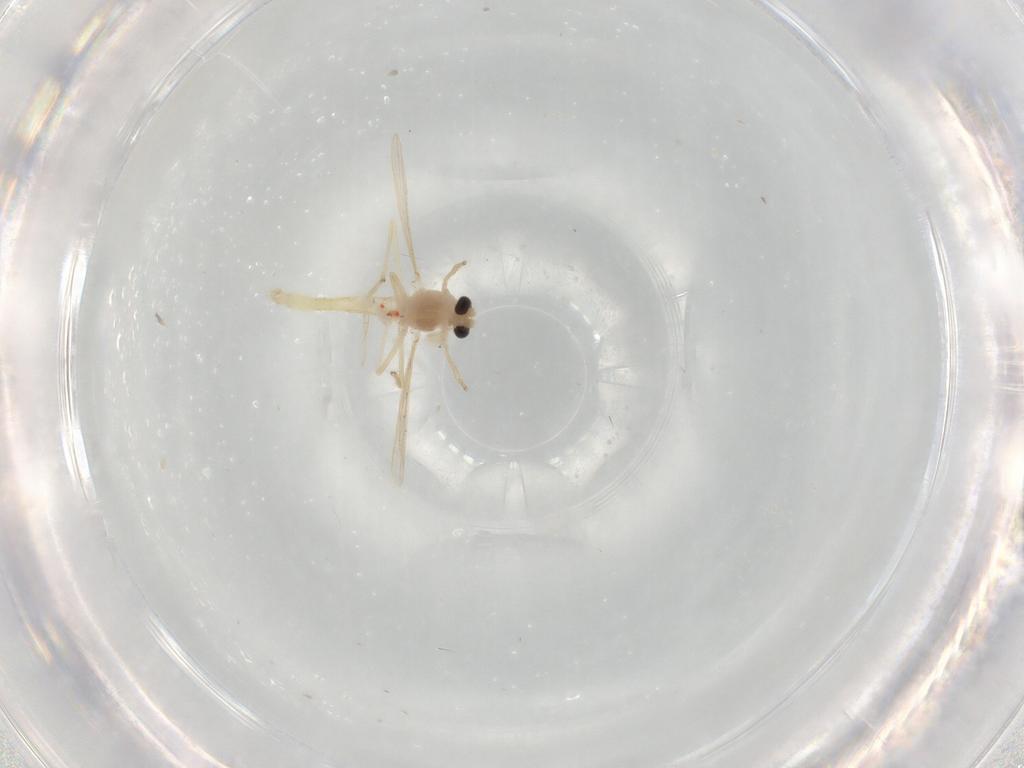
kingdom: Animalia
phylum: Arthropoda
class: Insecta
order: Diptera
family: Chironomidae
